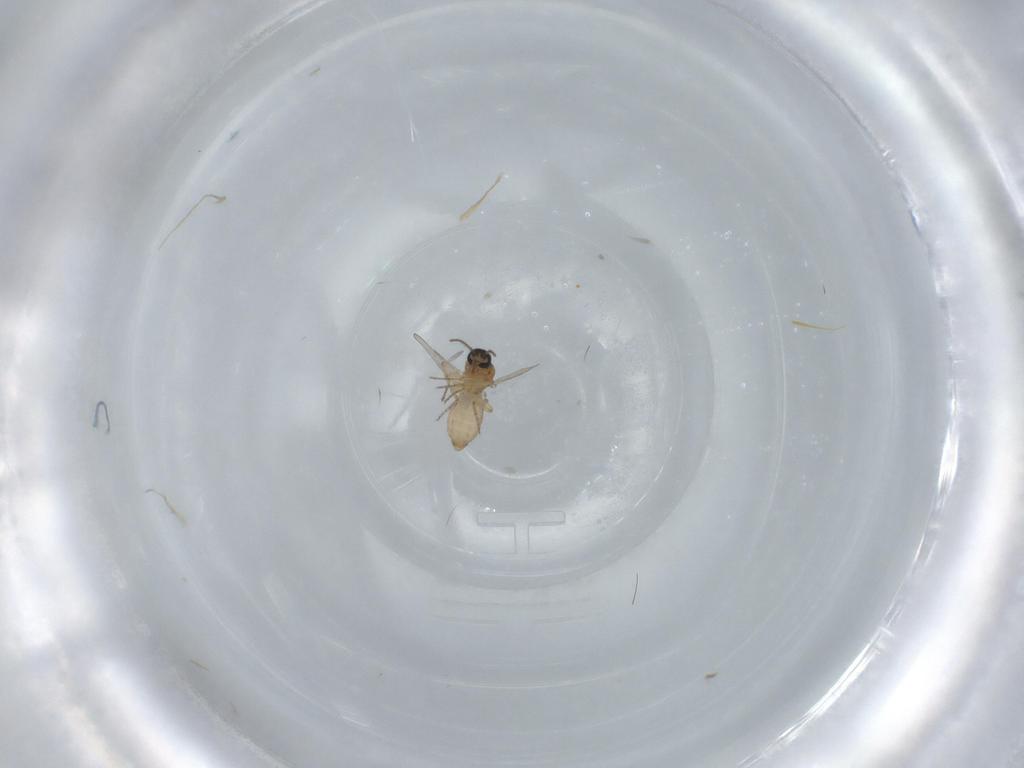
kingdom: Animalia
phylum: Arthropoda
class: Insecta
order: Diptera
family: Ceratopogonidae
